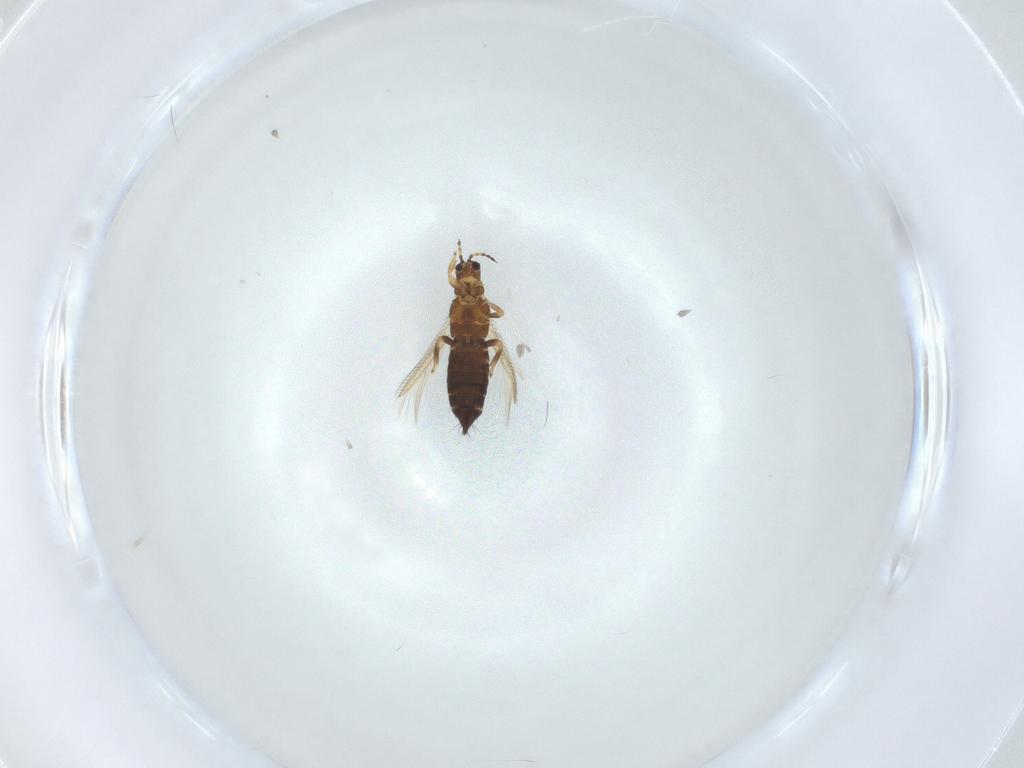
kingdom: Animalia
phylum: Arthropoda
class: Insecta
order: Thysanoptera
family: Thripidae
